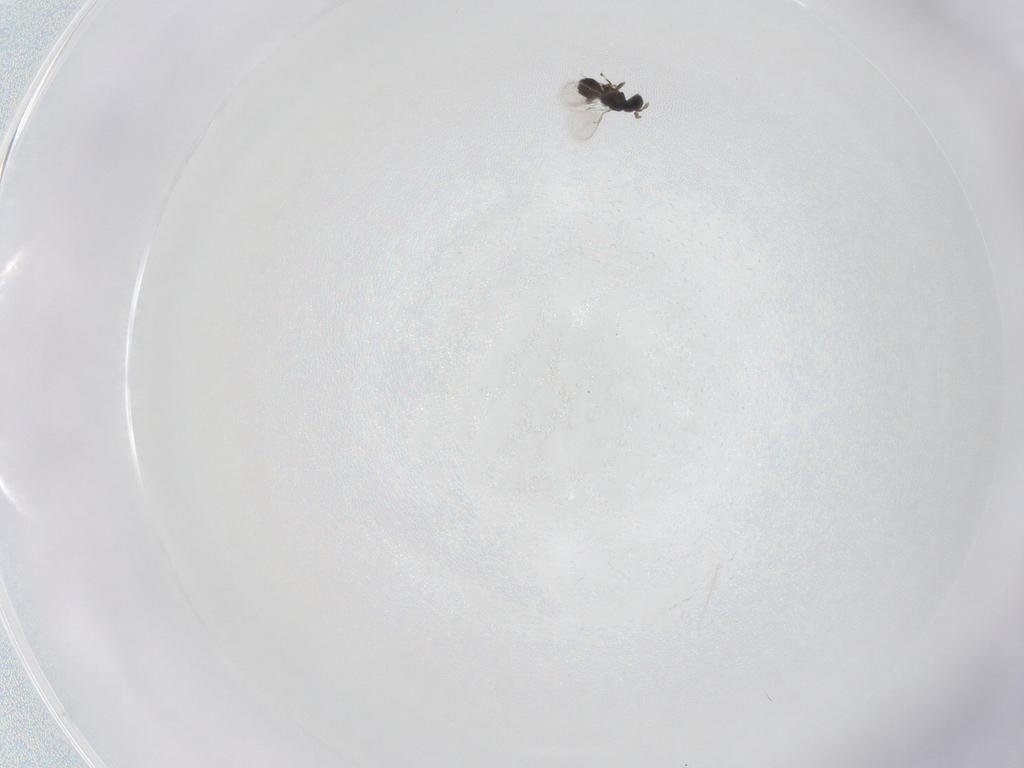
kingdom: Animalia
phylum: Arthropoda
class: Insecta
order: Hymenoptera
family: Eulophidae
